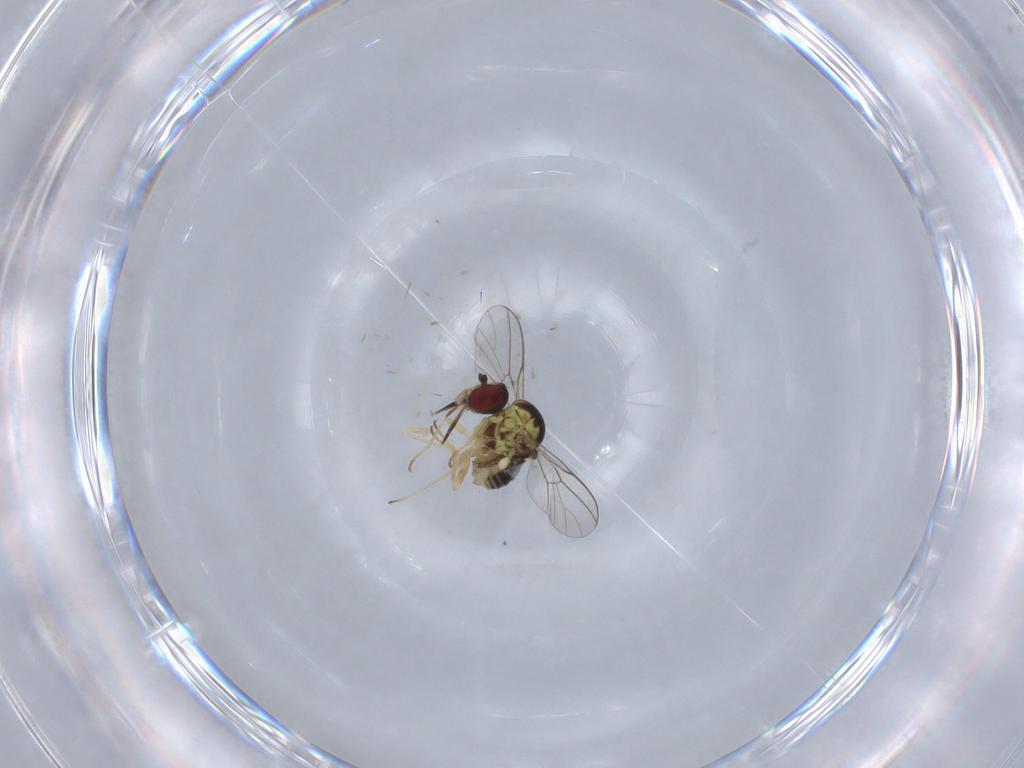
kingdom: Animalia
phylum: Arthropoda
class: Insecta
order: Diptera
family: Mythicomyiidae
